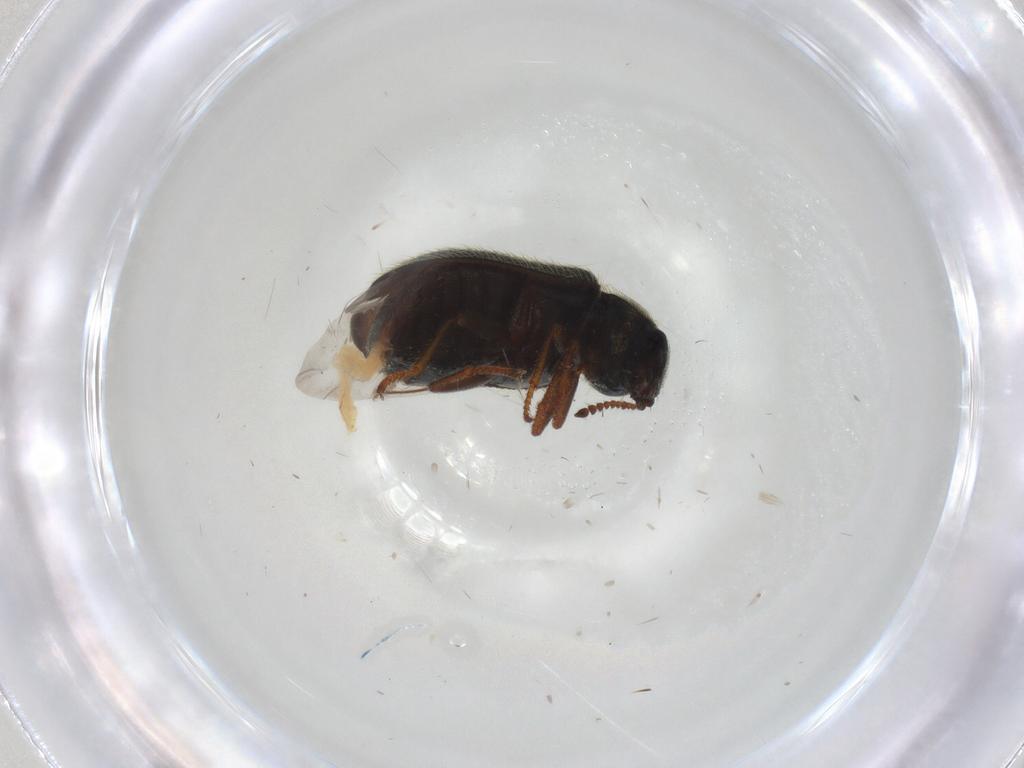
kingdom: Animalia
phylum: Arthropoda
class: Insecta
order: Coleoptera
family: Melyridae
